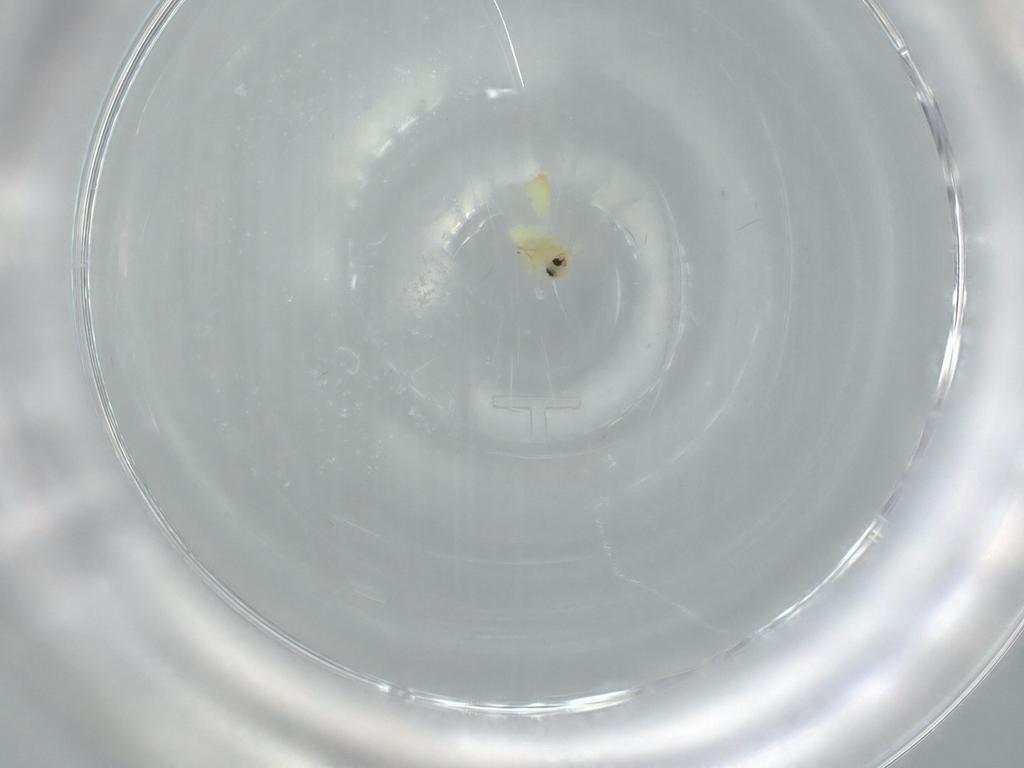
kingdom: Animalia
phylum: Arthropoda
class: Insecta
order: Hemiptera
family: Aleyrodidae
